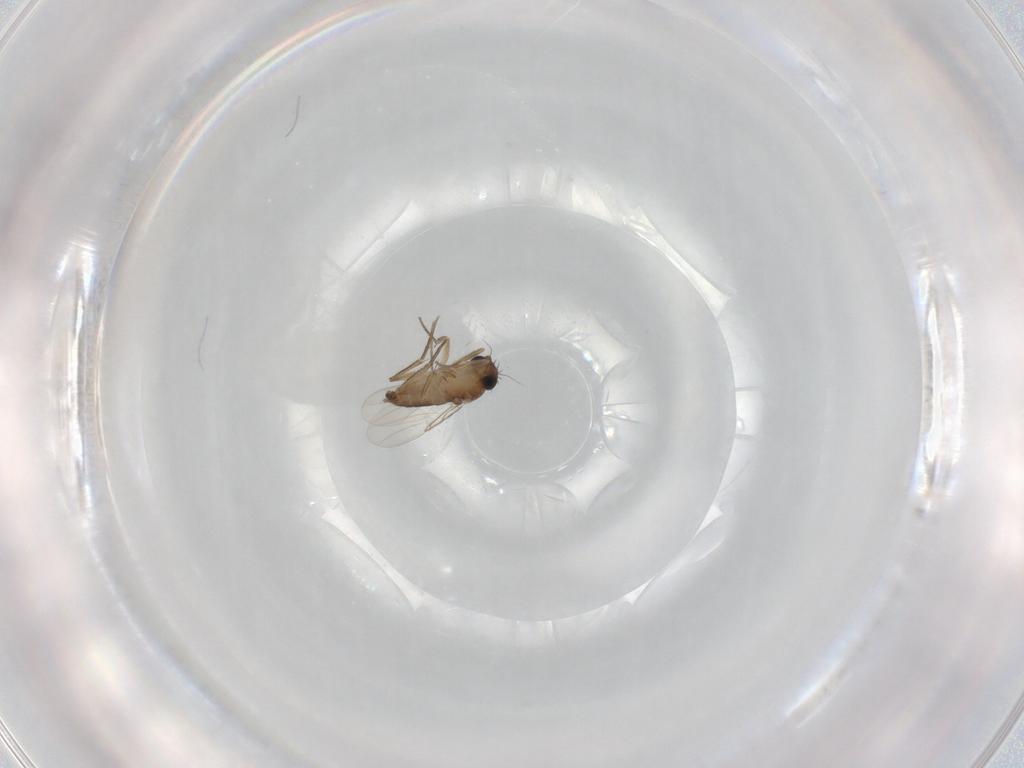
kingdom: Animalia
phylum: Arthropoda
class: Insecta
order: Diptera
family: Phoridae
